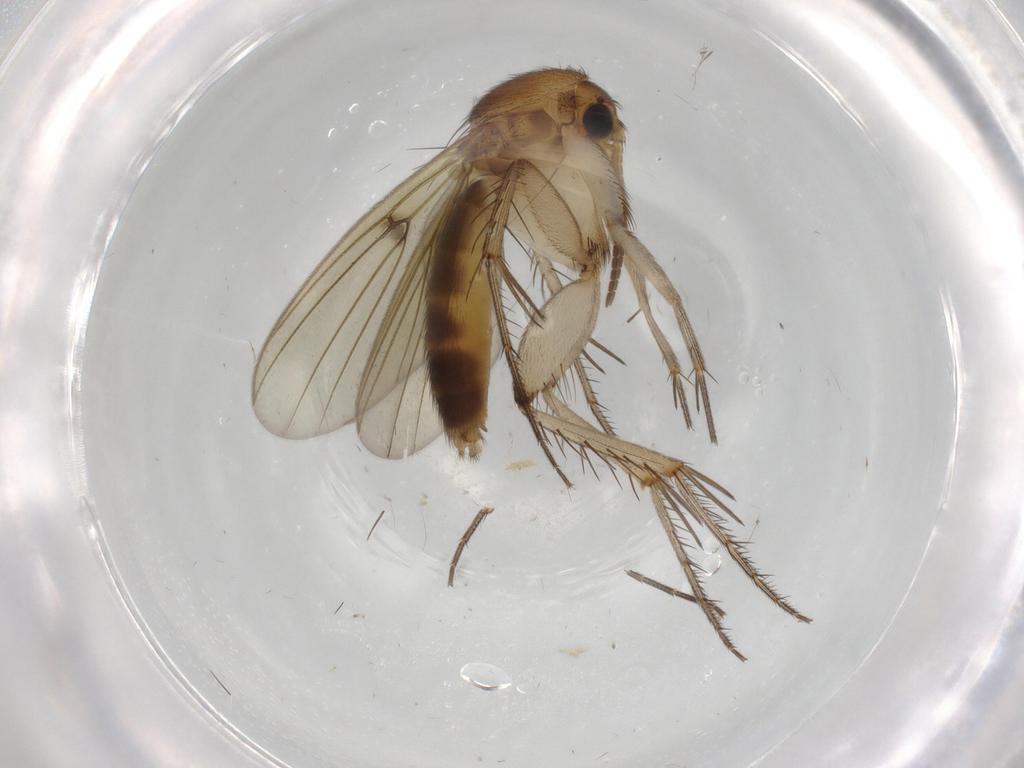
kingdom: Animalia
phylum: Arthropoda
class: Insecta
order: Diptera
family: Mycetophilidae
